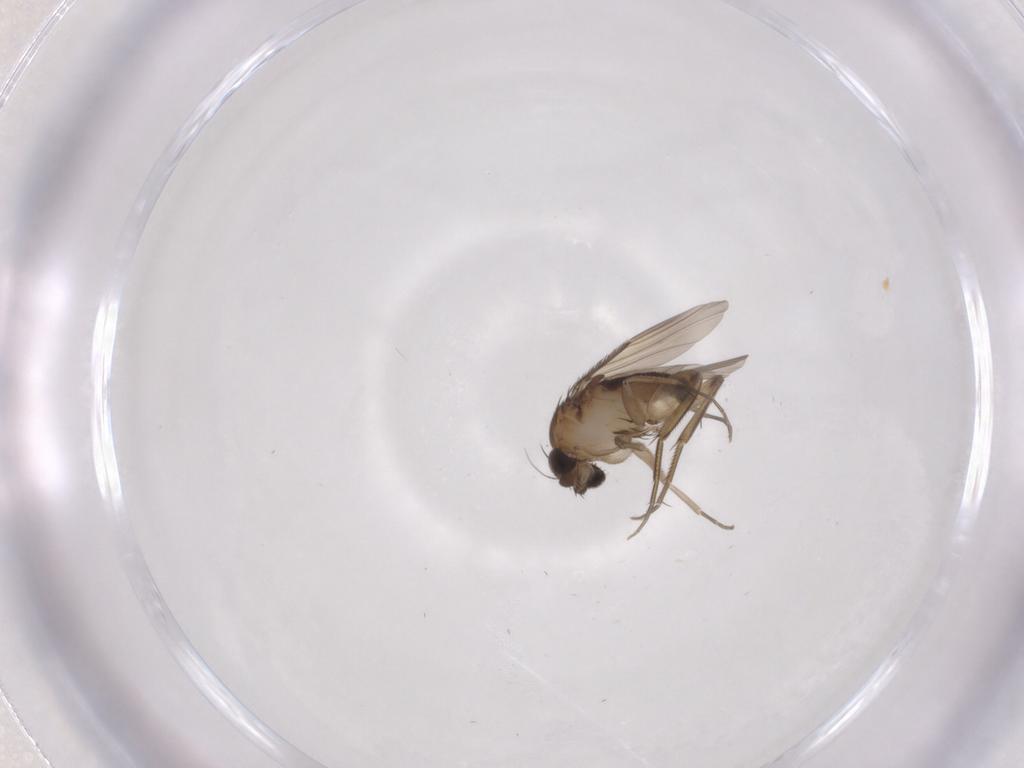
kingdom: Animalia
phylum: Arthropoda
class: Insecta
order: Diptera
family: Phoridae
